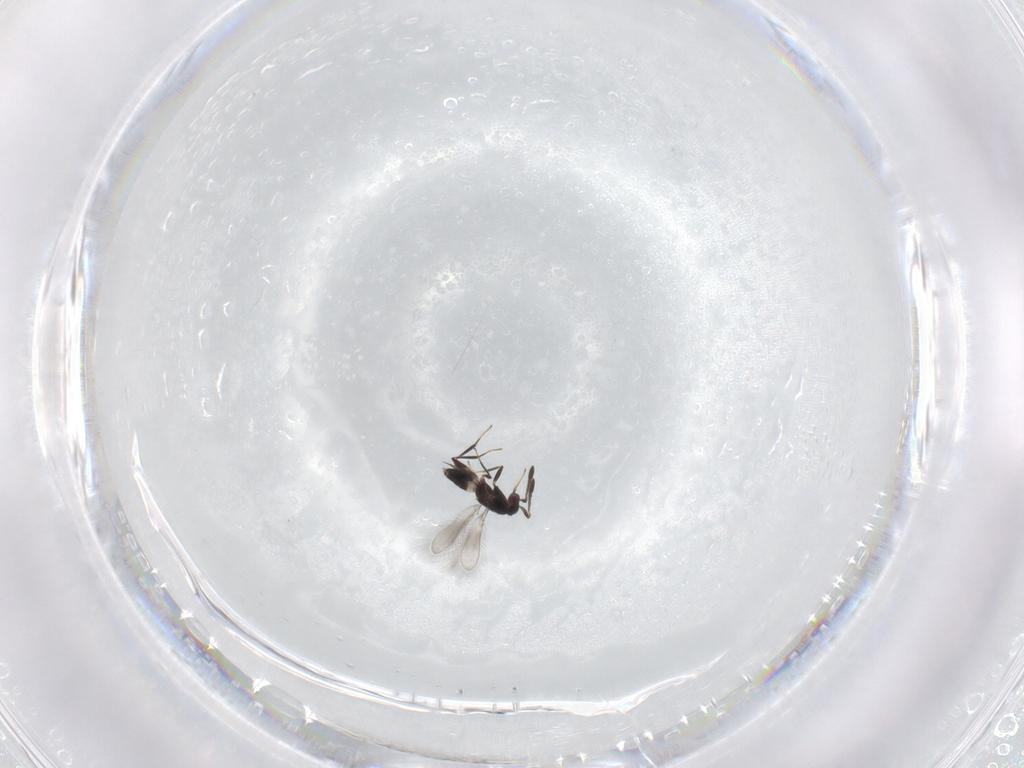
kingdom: Animalia
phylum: Arthropoda
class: Insecta
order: Hymenoptera
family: Mymaridae
